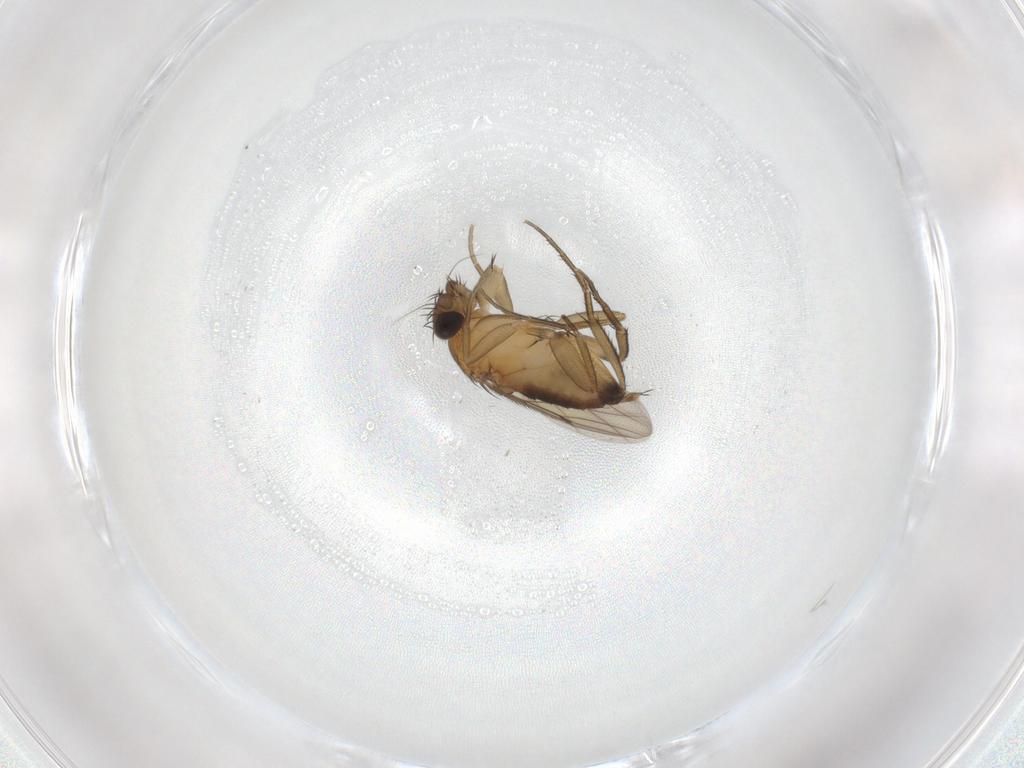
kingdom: Animalia
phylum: Arthropoda
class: Insecta
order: Diptera
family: Phoridae
